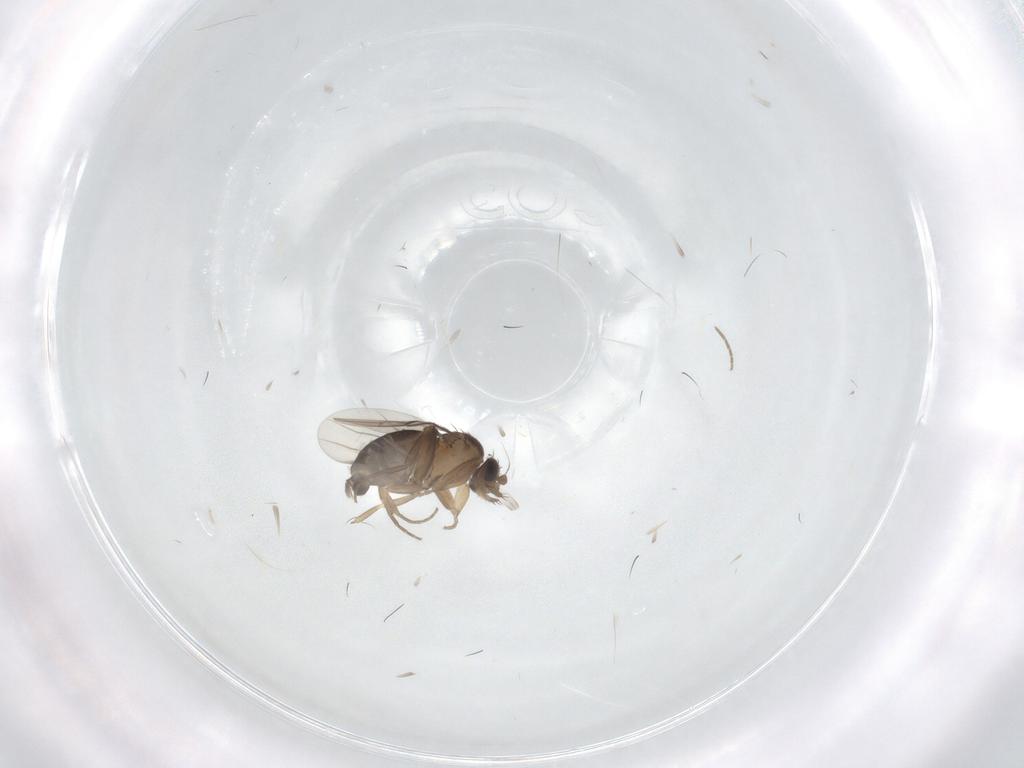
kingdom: Animalia
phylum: Arthropoda
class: Insecta
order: Diptera
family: Phoridae
